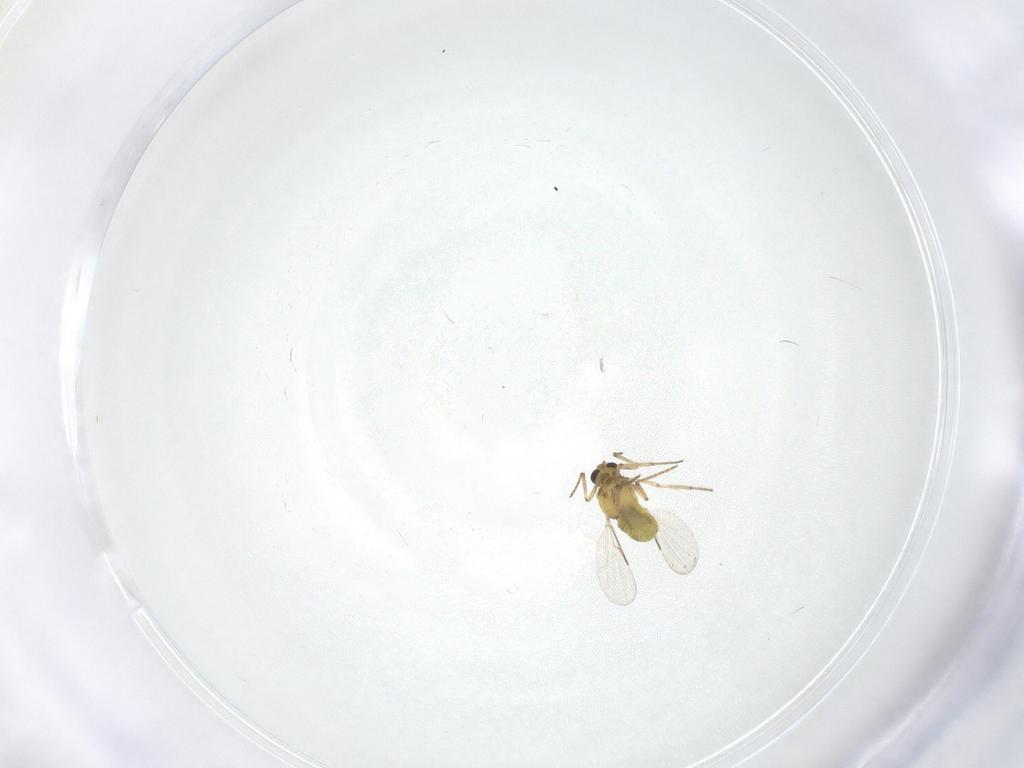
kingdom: Animalia
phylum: Arthropoda
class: Insecta
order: Diptera
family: Ceratopogonidae
